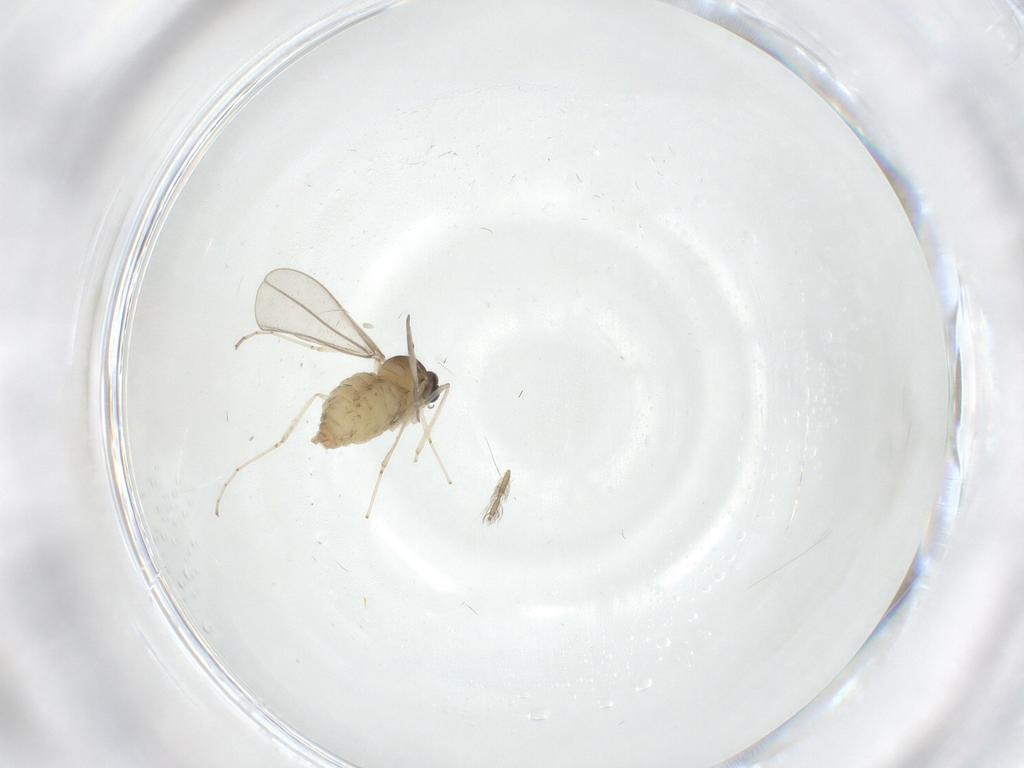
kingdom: Animalia
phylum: Arthropoda
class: Insecta
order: Diptera
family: Cecidomyiidae
